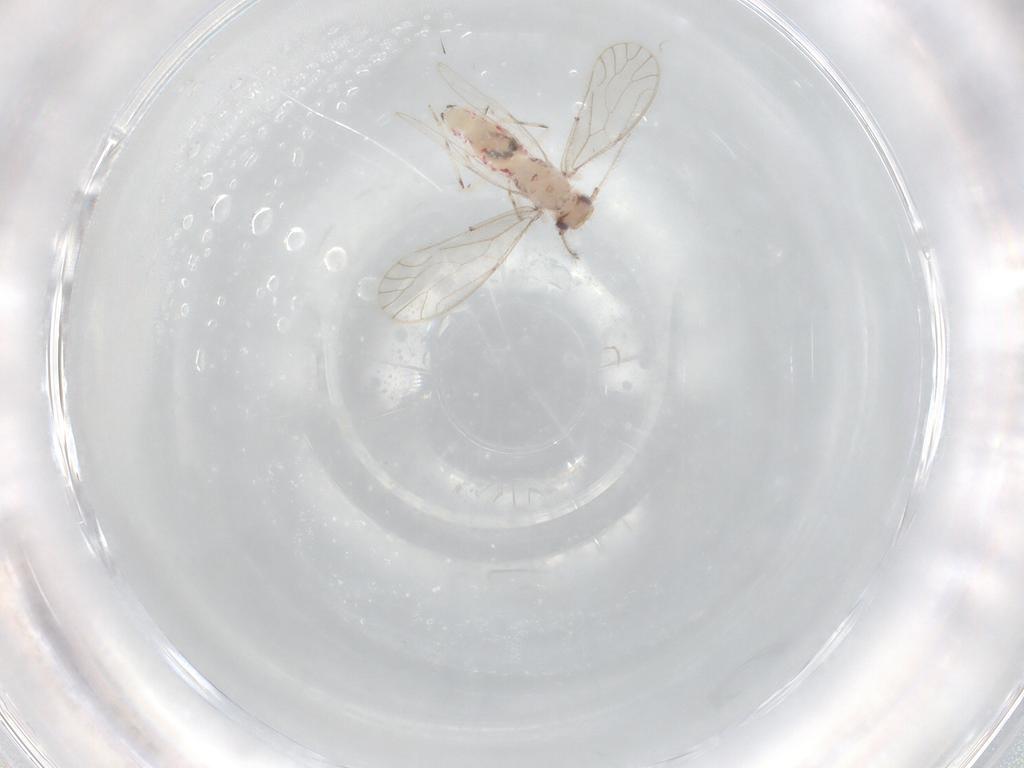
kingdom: Animalia
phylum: Arthropoda
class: Insecta
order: Psocodea
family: Caeciliusidae
